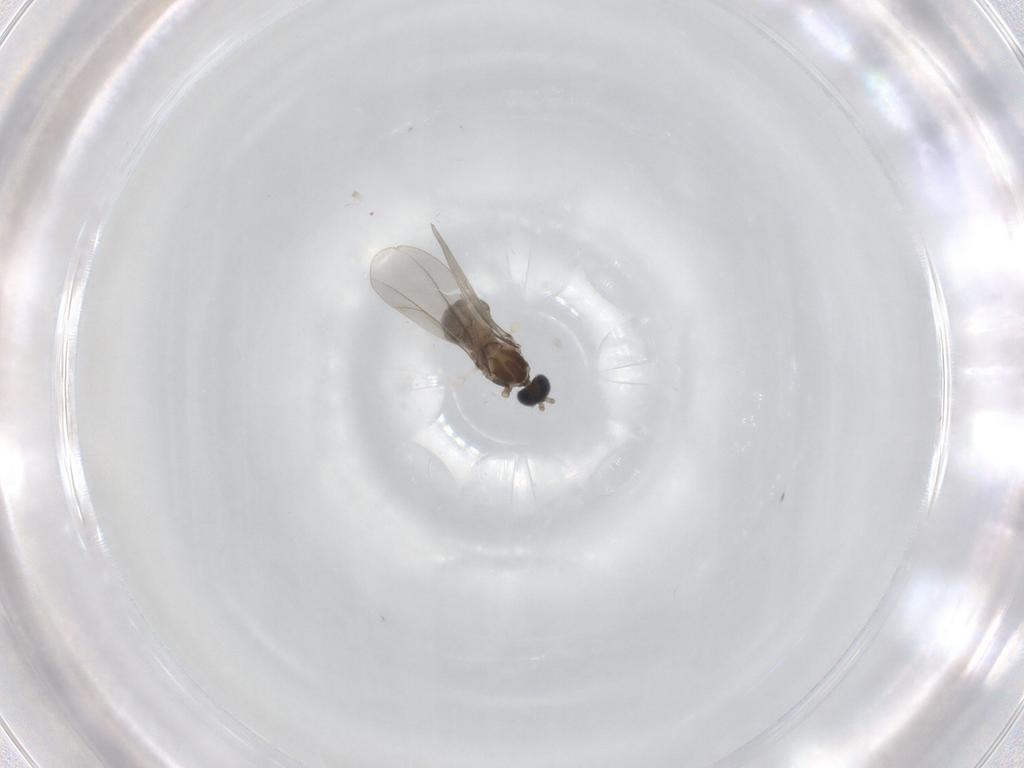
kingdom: Animalia
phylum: Arthropoda
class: Insecta
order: Diptera
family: Cecidomyiidae
